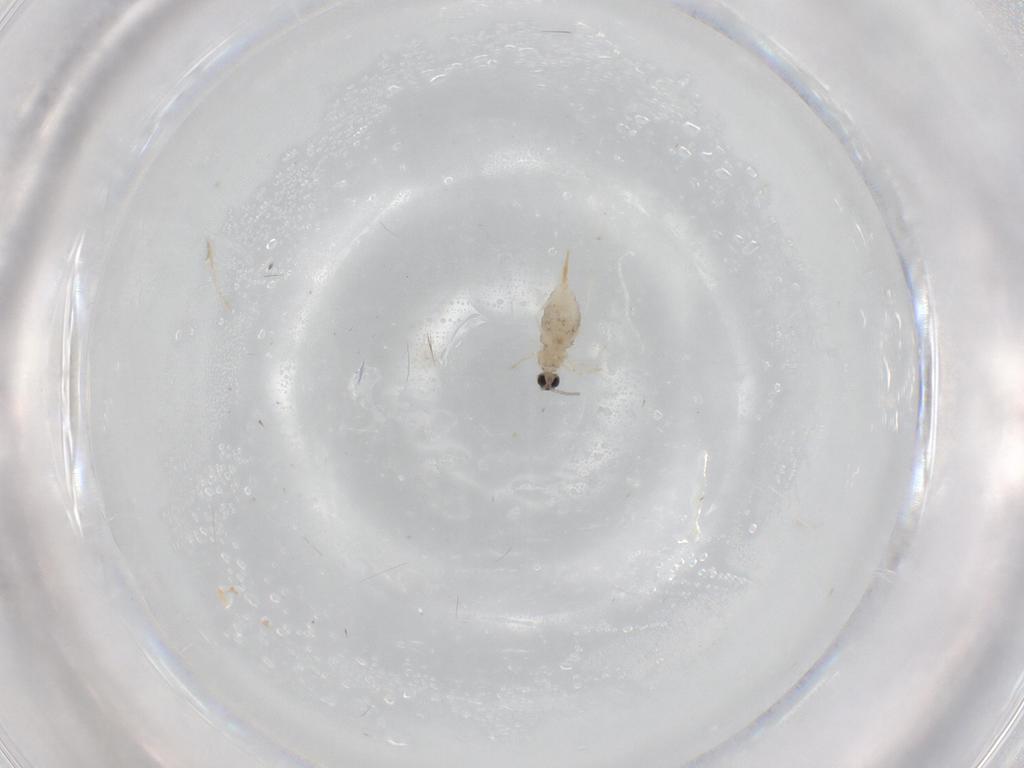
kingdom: Animalia
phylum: Arthropoda
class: Insecta
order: Diptera
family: Cecidomyiidae
